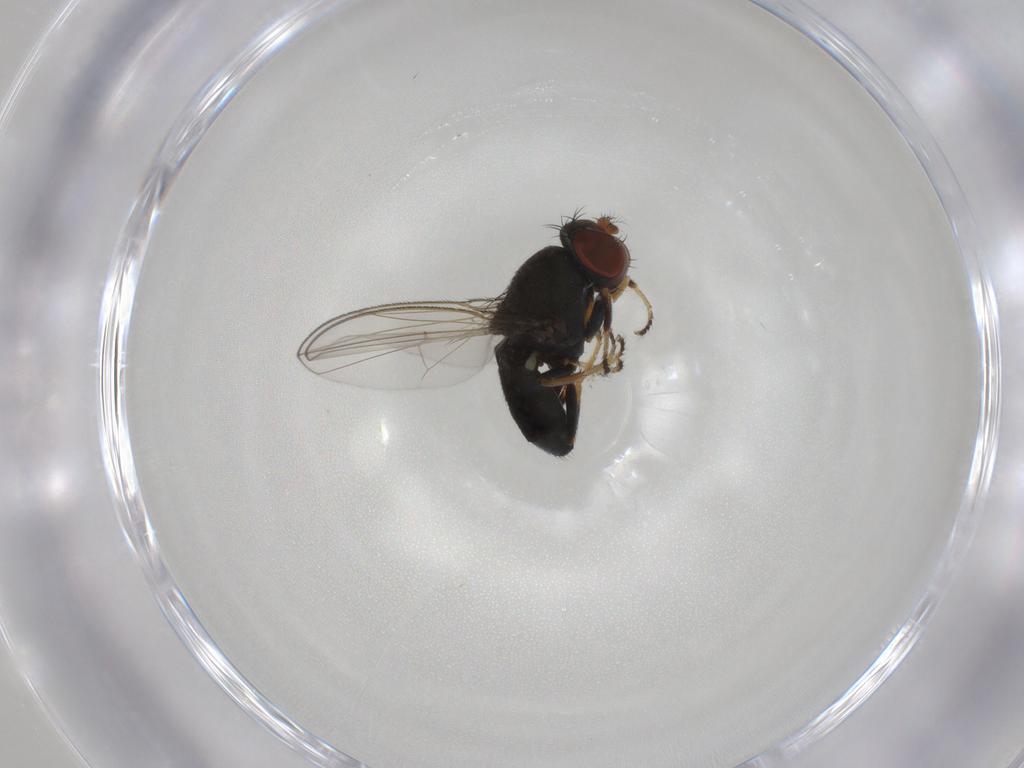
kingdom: Animalia
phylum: Arthropoda
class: Insecta
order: Diptera
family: Ephydridae
